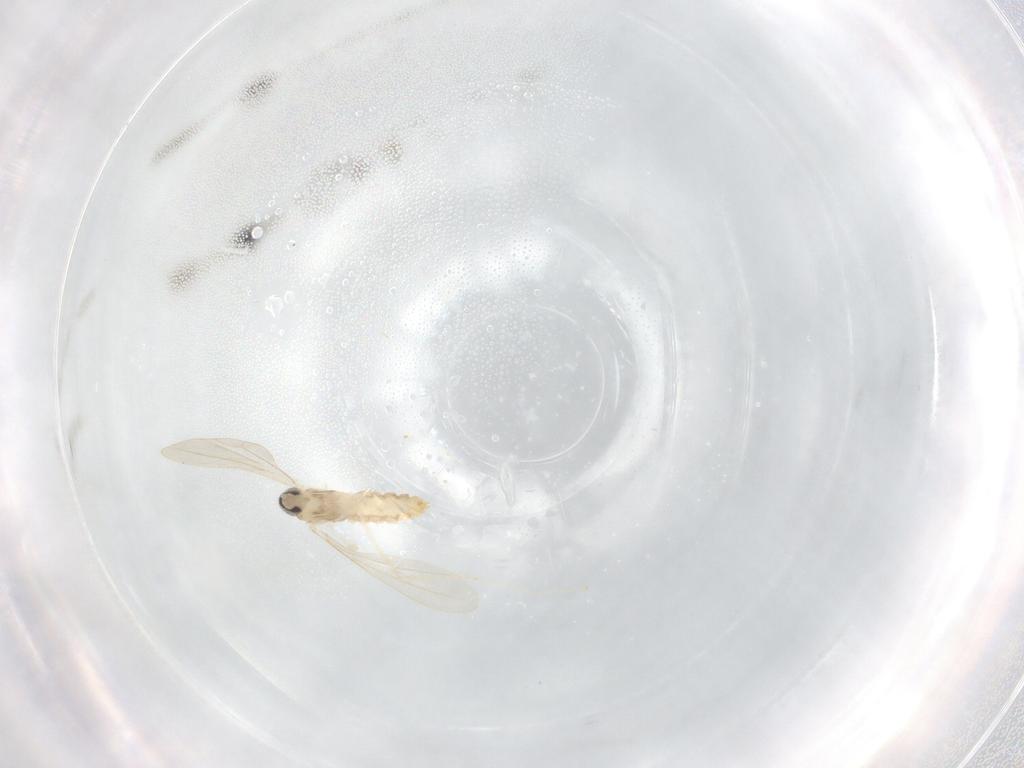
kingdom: Animalia
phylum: Arthropoda
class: Insecta
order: Diptera
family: Cecidomyiidae
